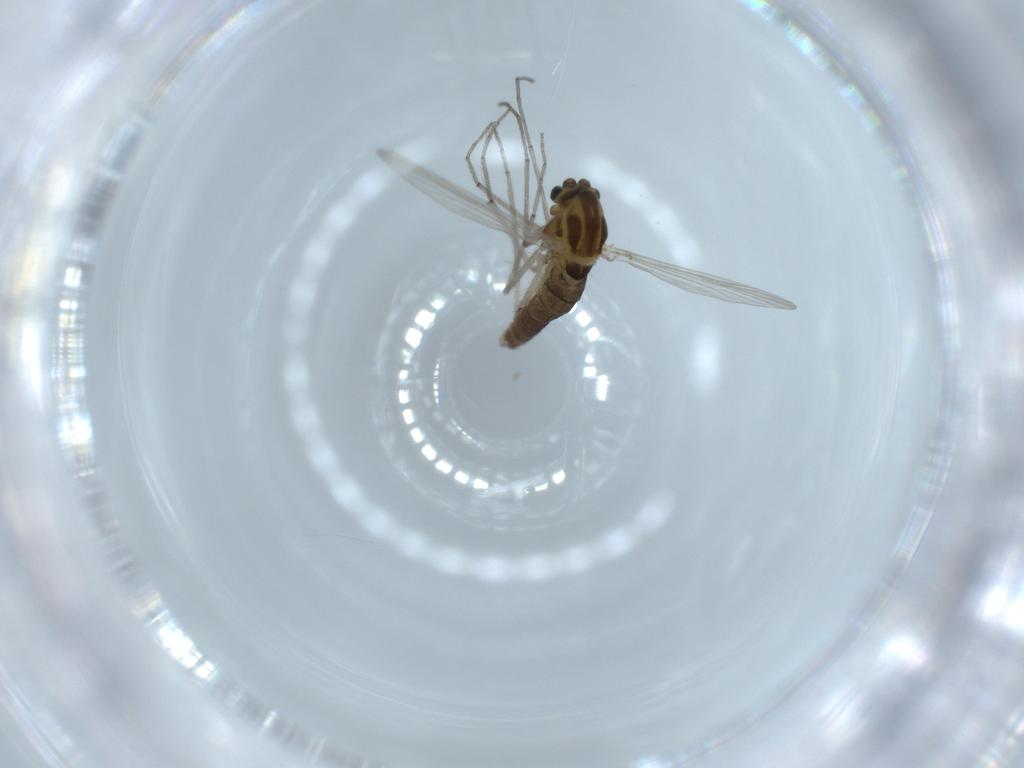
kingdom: Animalia
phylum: Arthropoda
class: Insecta
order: Diptera
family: Chironomidae
